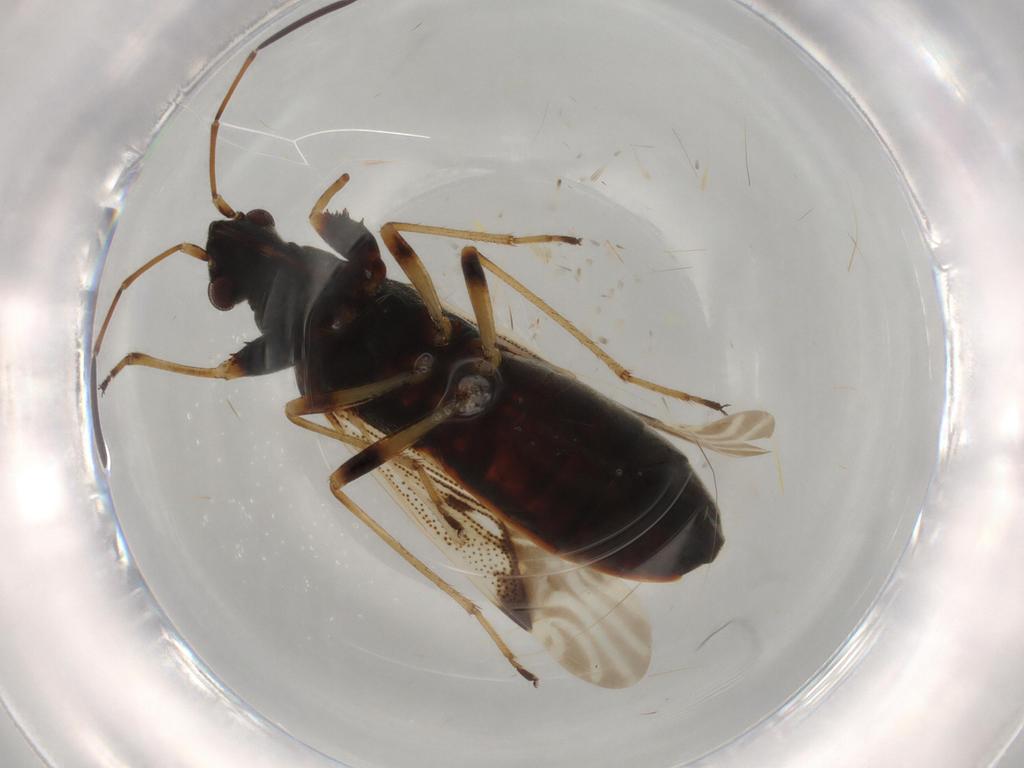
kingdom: Animalia
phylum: Arthropoda
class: Insecta
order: Hemiptera
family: Rhyparochromidae
